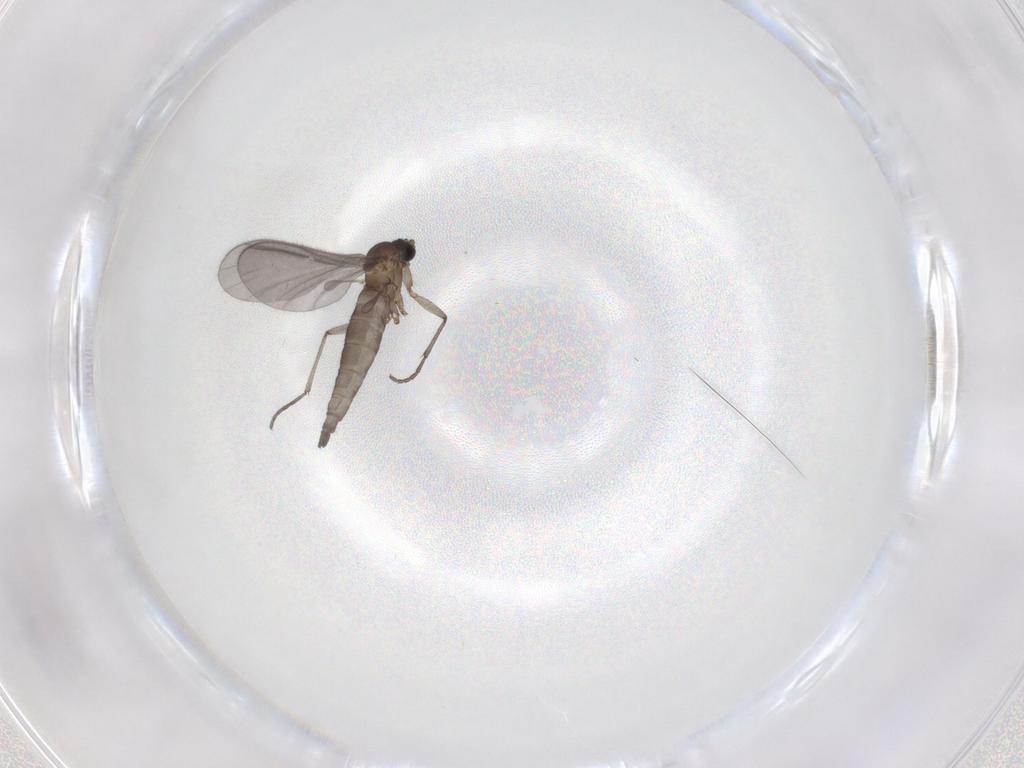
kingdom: Animalia
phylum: Arthropoda
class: Insecta
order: Diptera
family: Sciaridae
